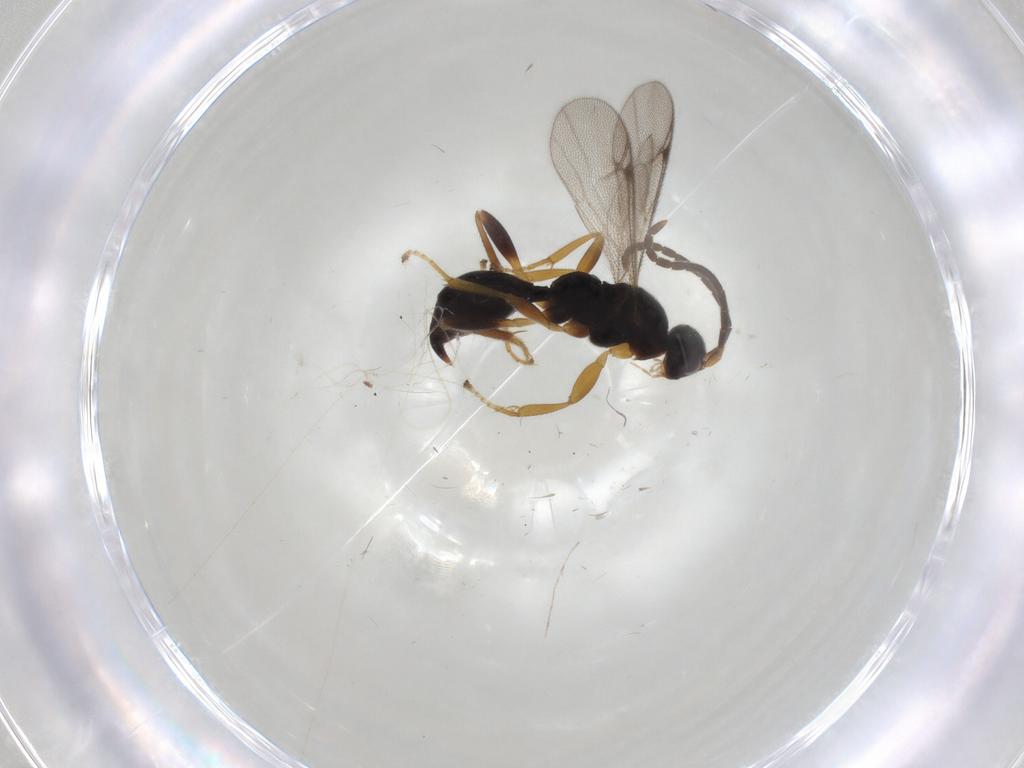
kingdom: Animalia
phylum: Arthropoda
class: Insecta
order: Hymenoptera
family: Proctotrupidae
